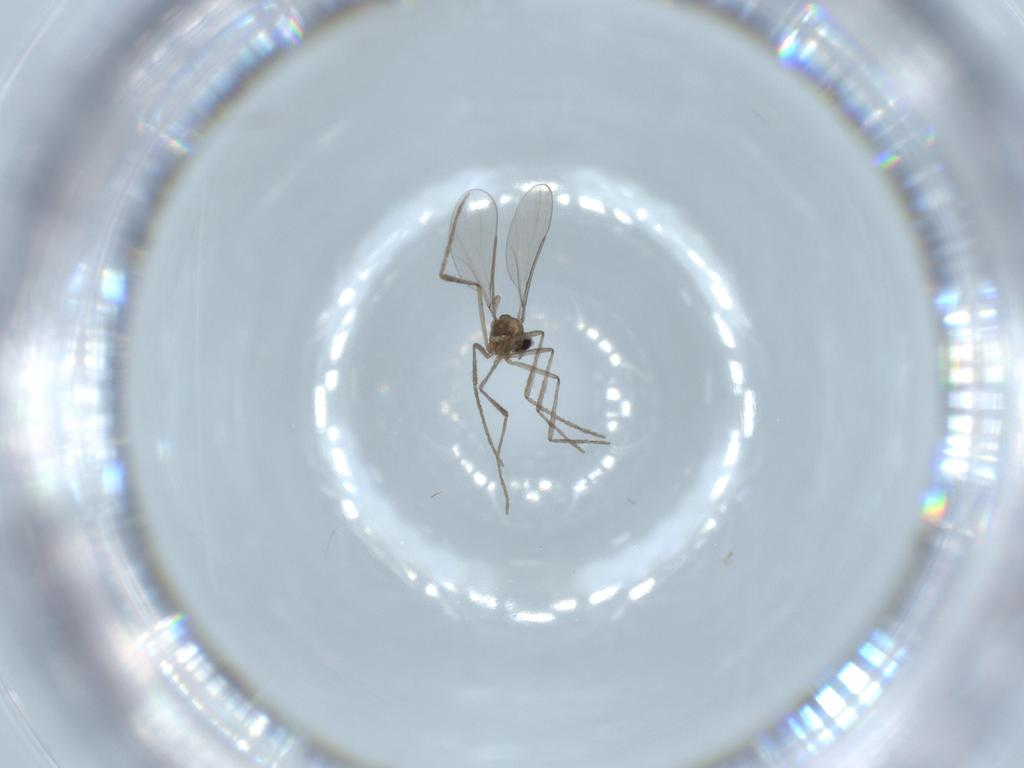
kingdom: Animalia
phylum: Arthropoda
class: Insecta
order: Diptera
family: Cecidomyiidae
